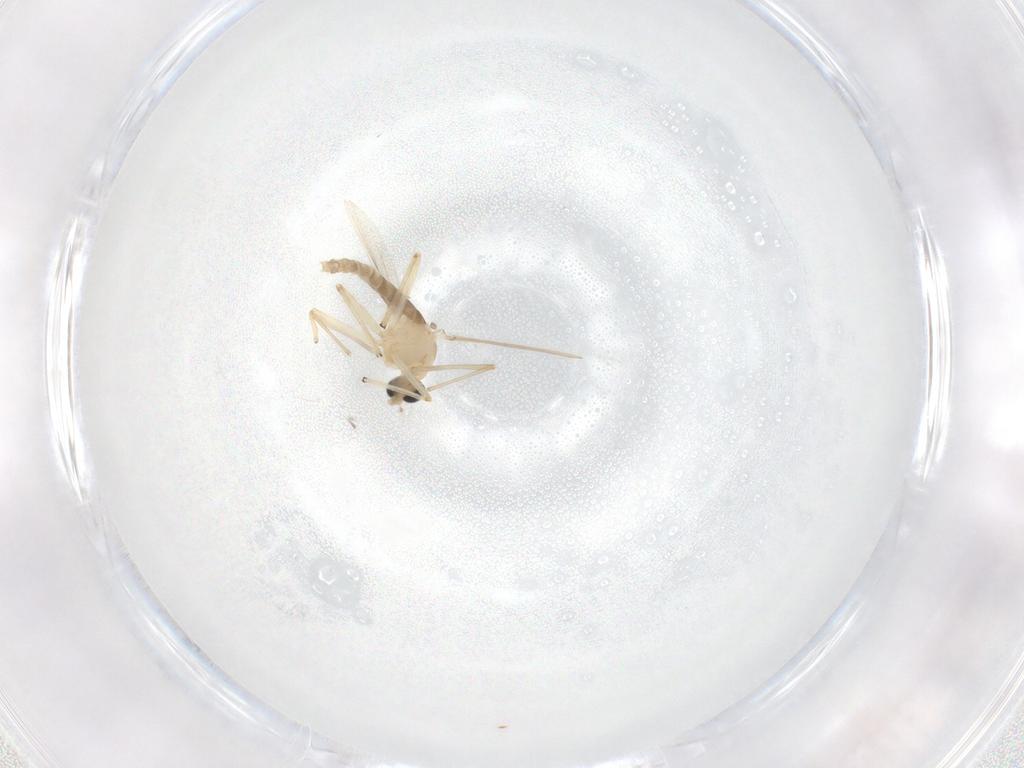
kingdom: Animalia
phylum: Arthropoda
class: Insecta
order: Diptera
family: Chironomidae
